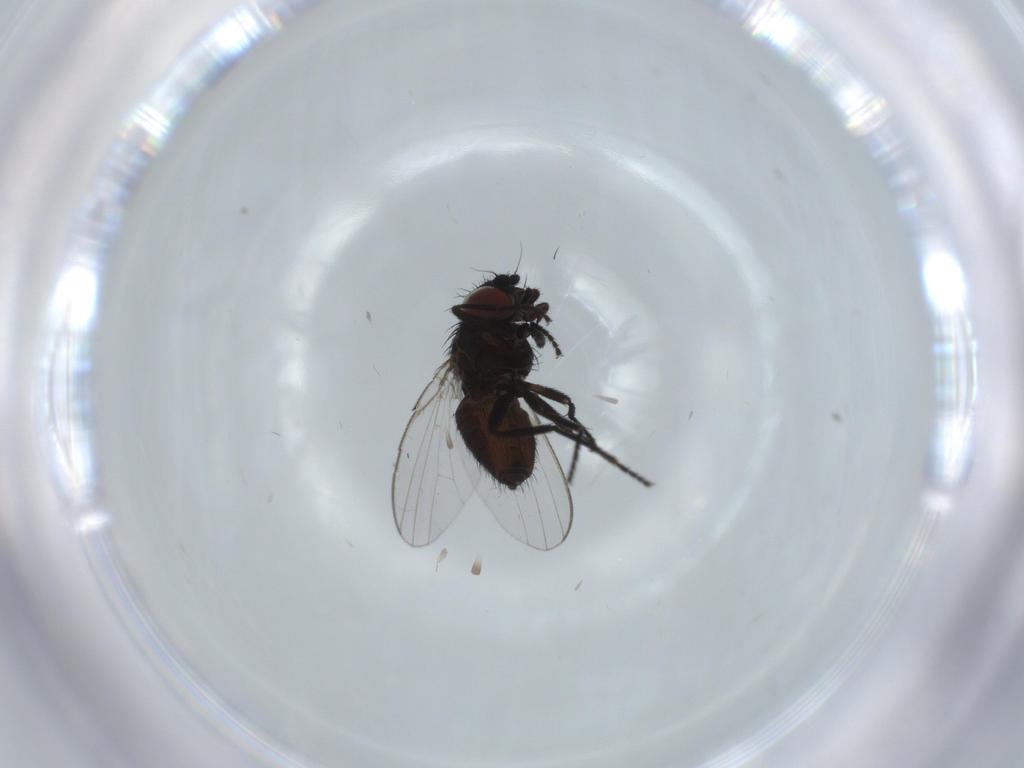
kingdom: Animalia
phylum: Arthropoda
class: Insecta
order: Diptera
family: Milichiidae
